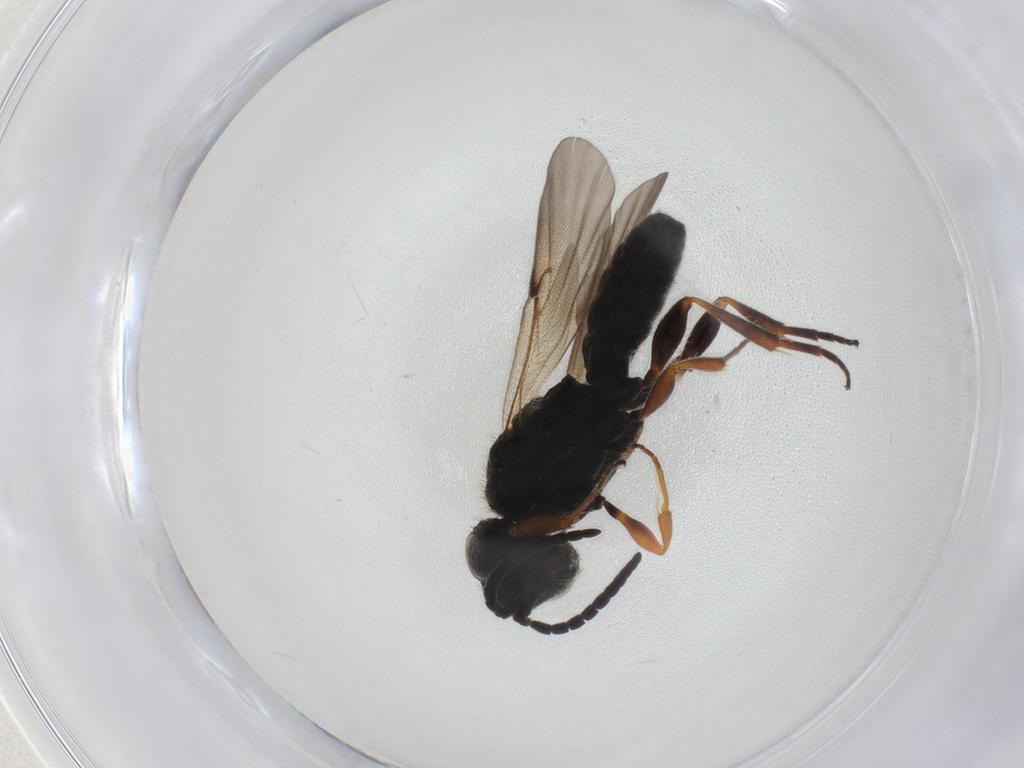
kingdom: Animalia
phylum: Arthropoda
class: Insecta
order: Hymenoptera
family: Sparasionidae
